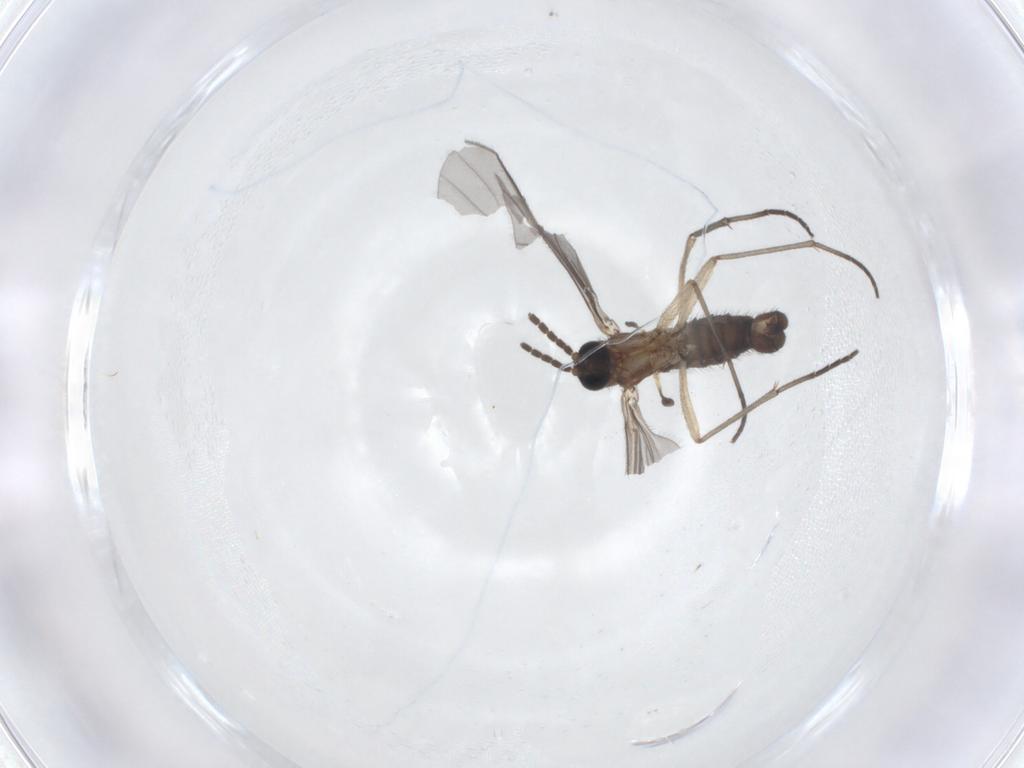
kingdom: Animalia
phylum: Arthropoda
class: Insecta
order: Diptera
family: Sciaridae
